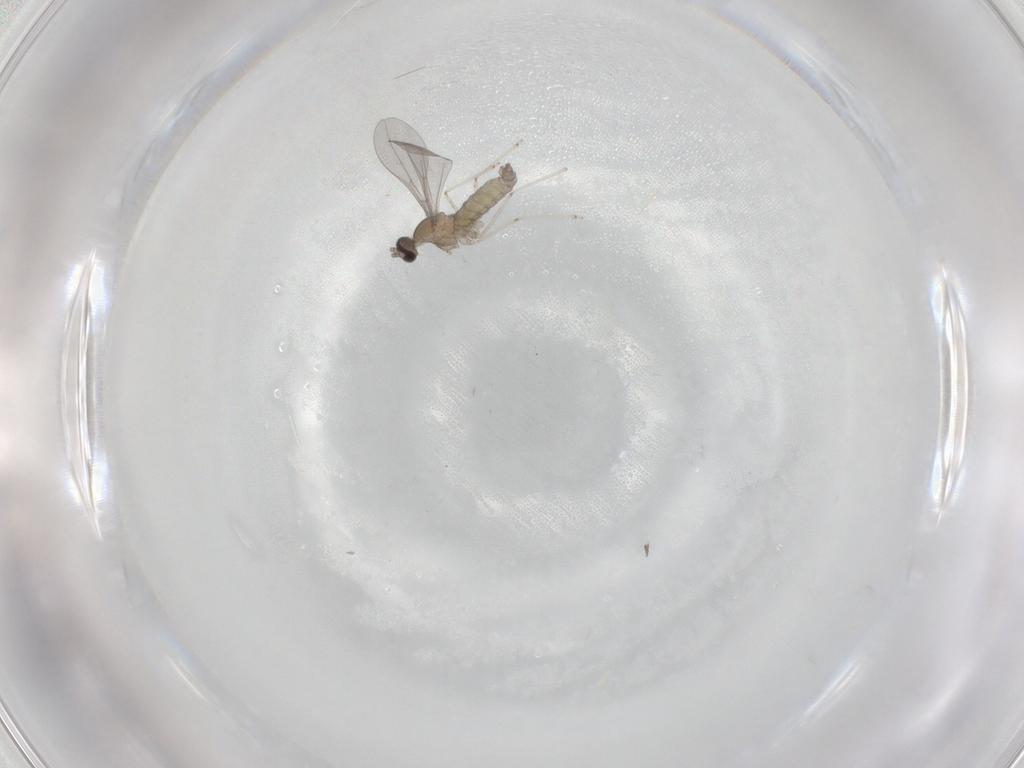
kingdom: Animalia
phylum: Arthropoda
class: Insecta
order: Diptera
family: Cecidomyiidae
